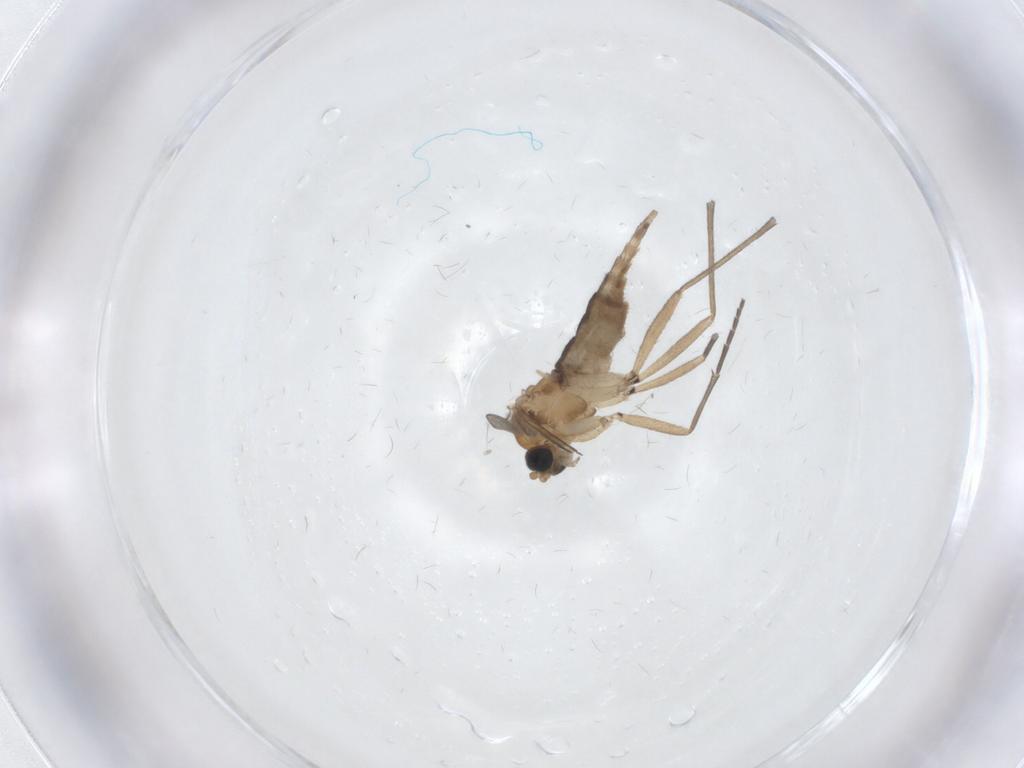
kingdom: Animalia
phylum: Arthropoda
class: Insecta
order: Diptera
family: Sciaridae
